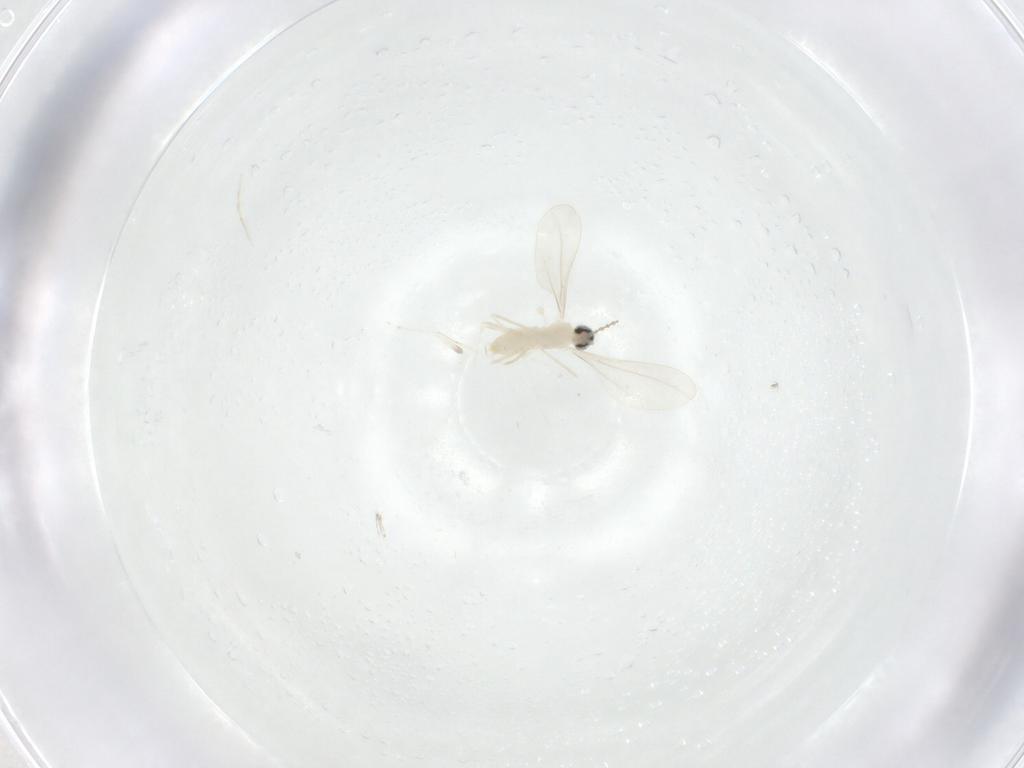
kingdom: Animalia
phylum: Arthropoda
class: Insecta
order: Diptera
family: Cecidomyiidae
